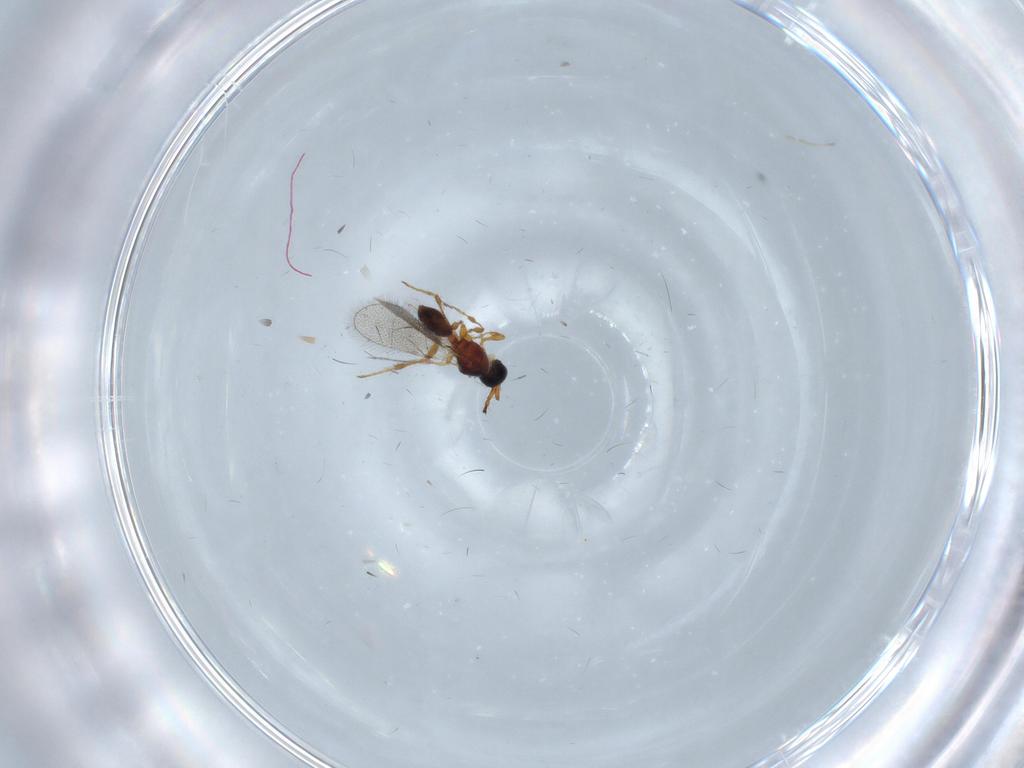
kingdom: Animalia
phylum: Arthropoda
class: Insecta
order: Hymenoptera
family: Diapriidae
